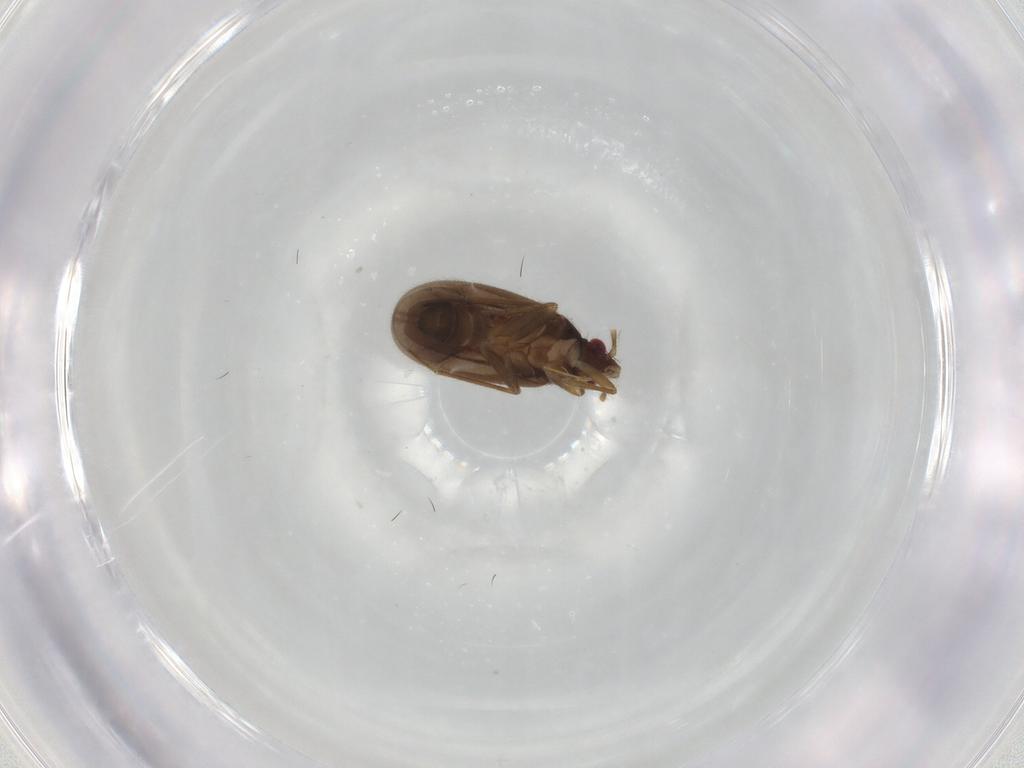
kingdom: Animalia
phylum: Arthropoda
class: Insecta
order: Hemiptera
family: Ceratocombidae
